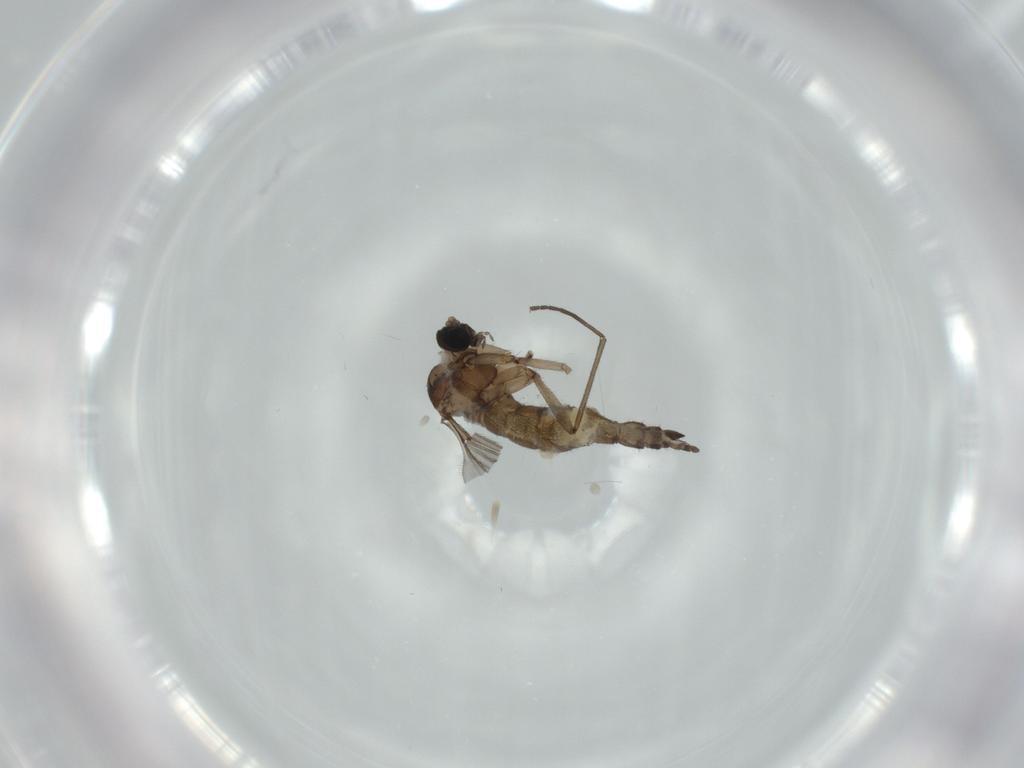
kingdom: Animalia
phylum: Arthropoda
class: Insecta
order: Diptera
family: Sciaridae
